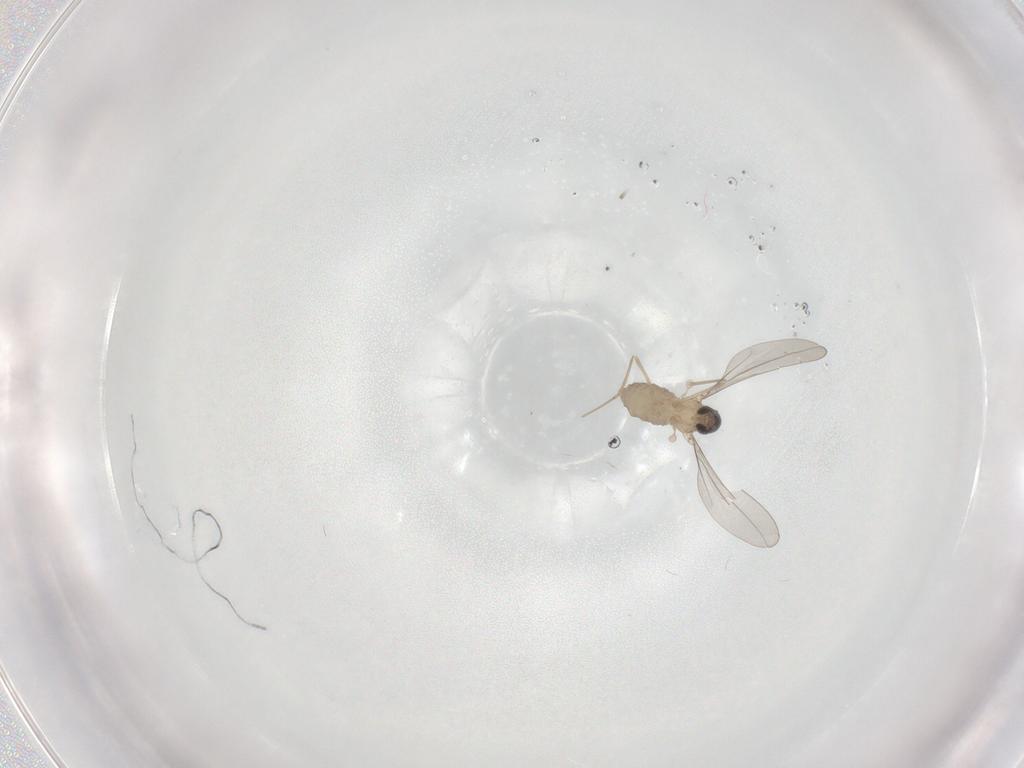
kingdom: Animalia
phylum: Arthropoda
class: Insecta
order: Diptera
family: Cecidomyiidae
